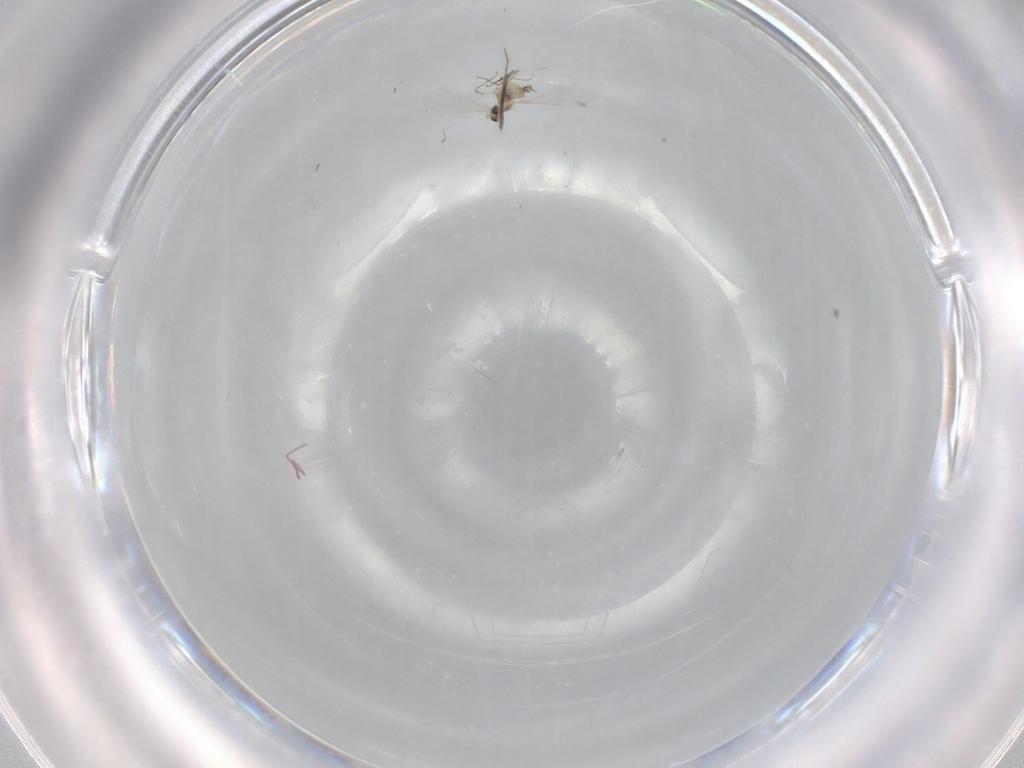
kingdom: Animalia
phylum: Arthropoda
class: Insecta
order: Diptera
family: Cecidomyiidae
